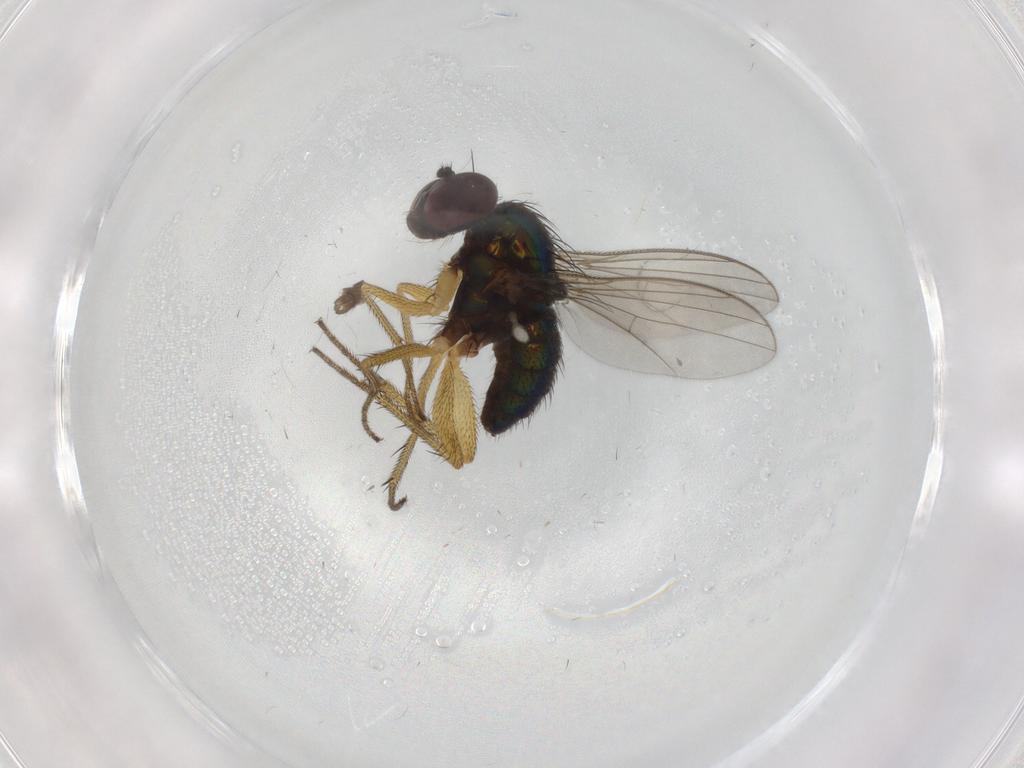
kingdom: Animalia
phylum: Arthropoda
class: Insecta
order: Diptera
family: Chironomidae
